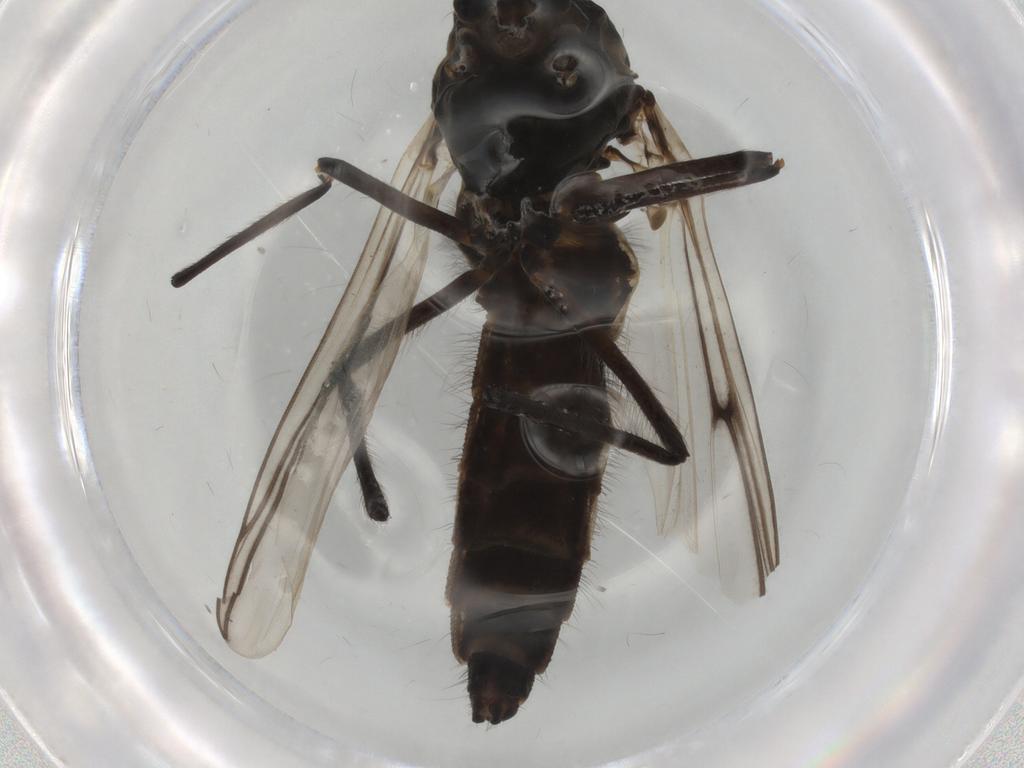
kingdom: Animalia
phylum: Arthropoda
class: Insecta
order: Diptera
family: Chironomidae
